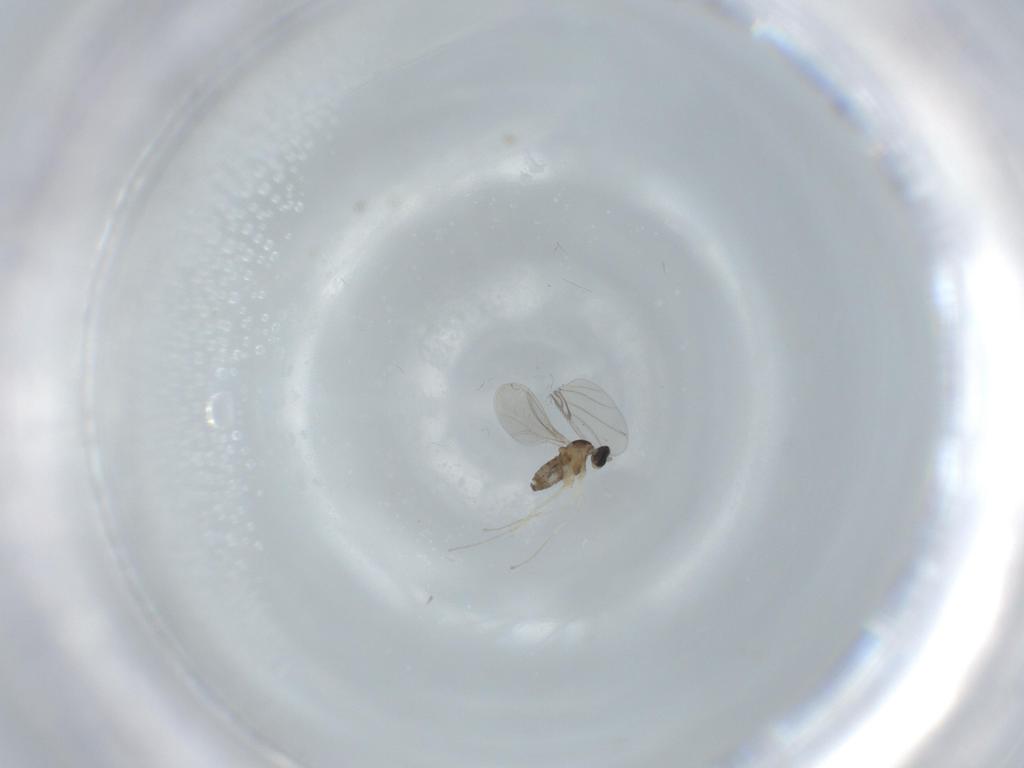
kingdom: Animalia
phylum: Arthropoda
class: Insecta
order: Diptera
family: Cecidomyiidae
